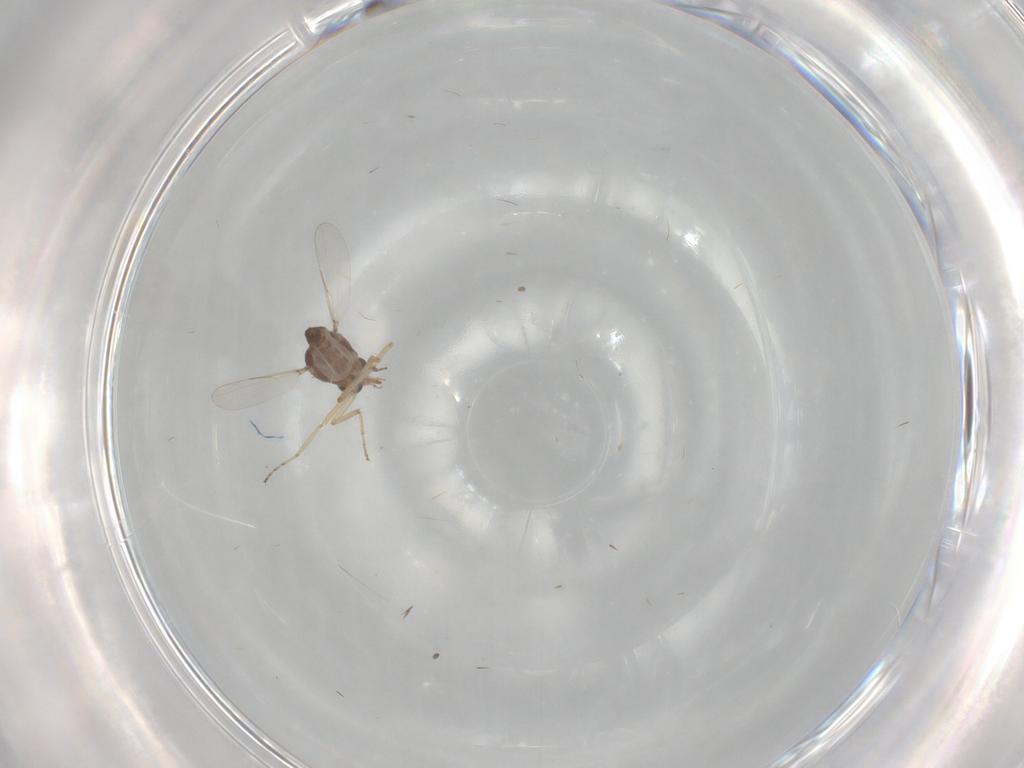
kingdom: Animalia
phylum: Arthropoda
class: Insecta
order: Diptera
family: Ceratopogonidae
